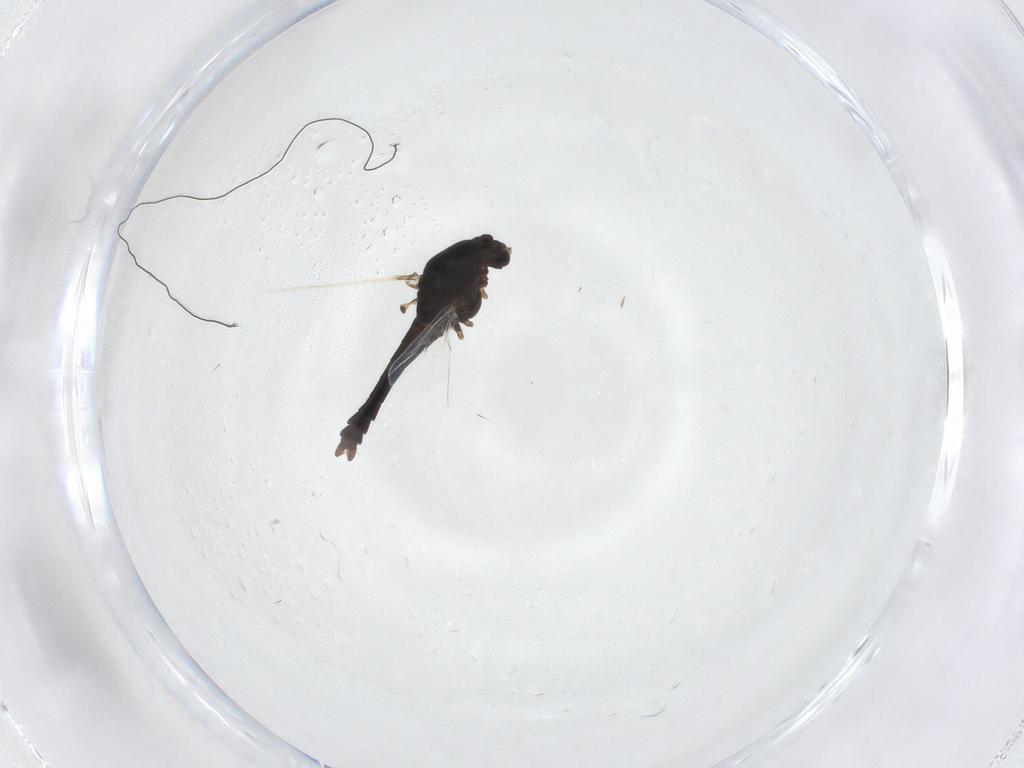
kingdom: Animalia
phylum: Arthropoda
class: Insecta
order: Diptera
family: Chironomidae
